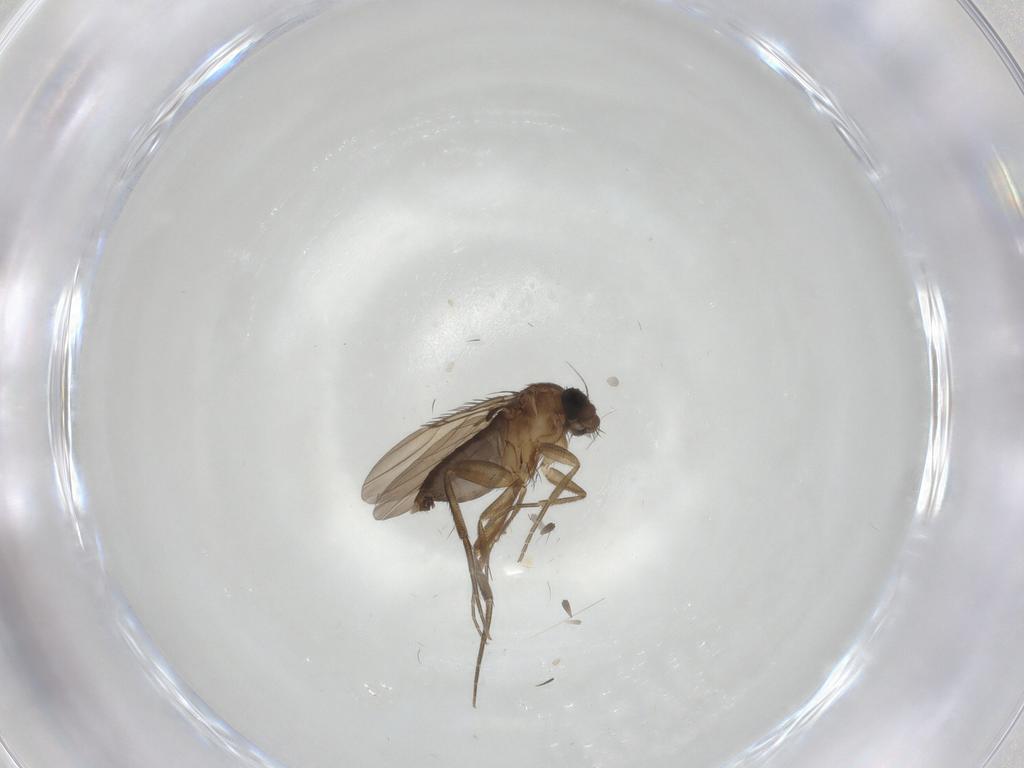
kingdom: Animalia
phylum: Arthropoda
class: Insecta
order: Diptera
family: Phoridae
